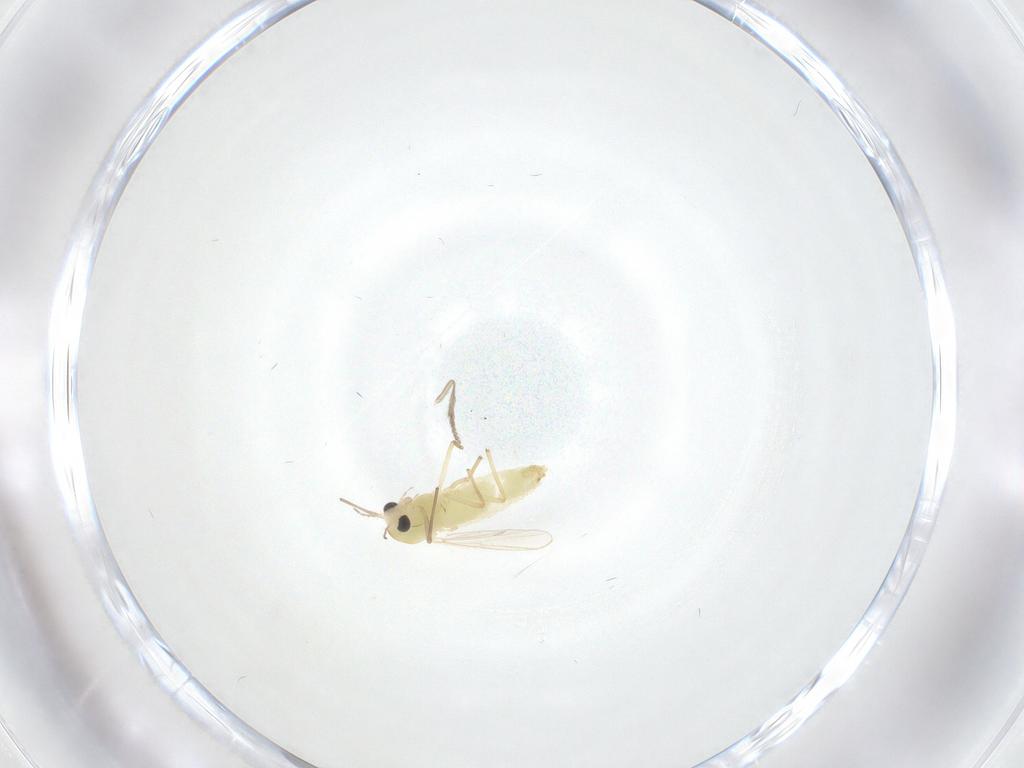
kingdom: Animalia
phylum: Arthropoda
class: Insecta
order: Diptera
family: Chironomidae
